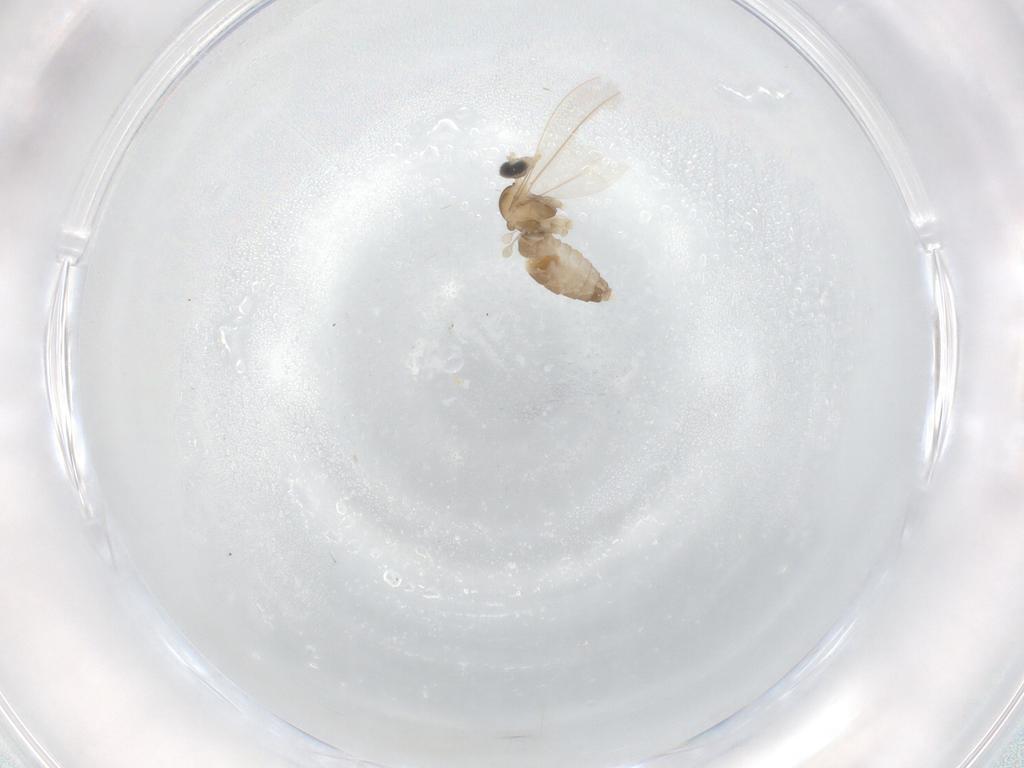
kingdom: Animalia
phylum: Arthropoda
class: Insecta
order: Diptera
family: Cecidomyiidae
